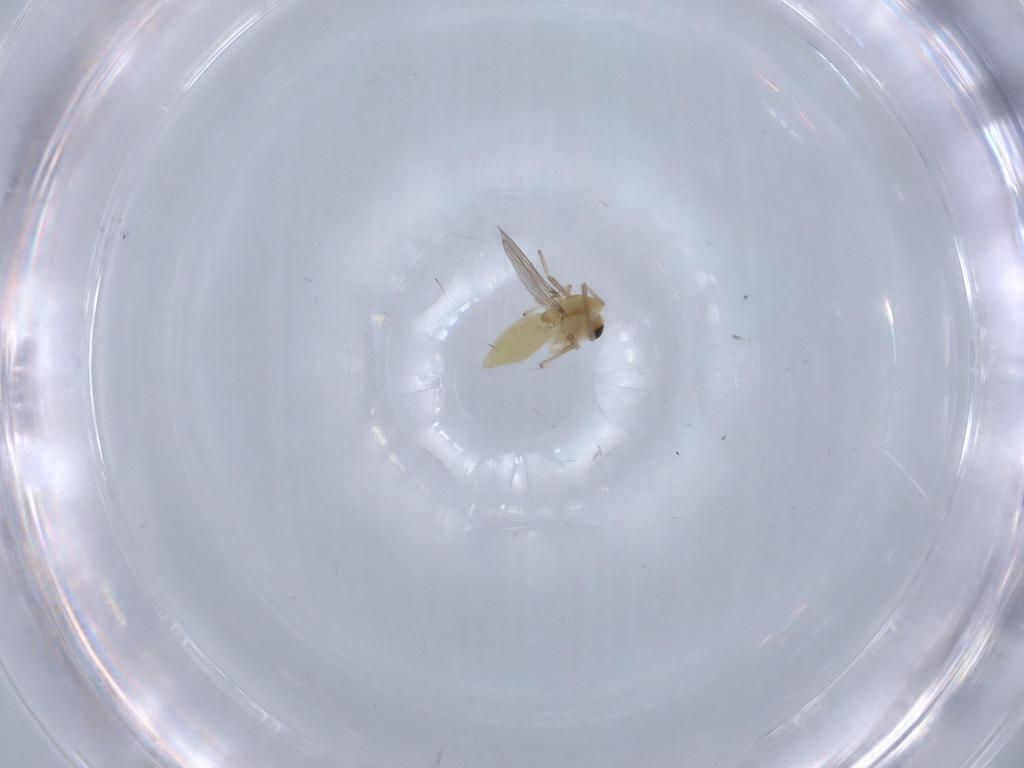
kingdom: Animalia
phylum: Arthropoda
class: Insecta
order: Diptera
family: Chironomidae
